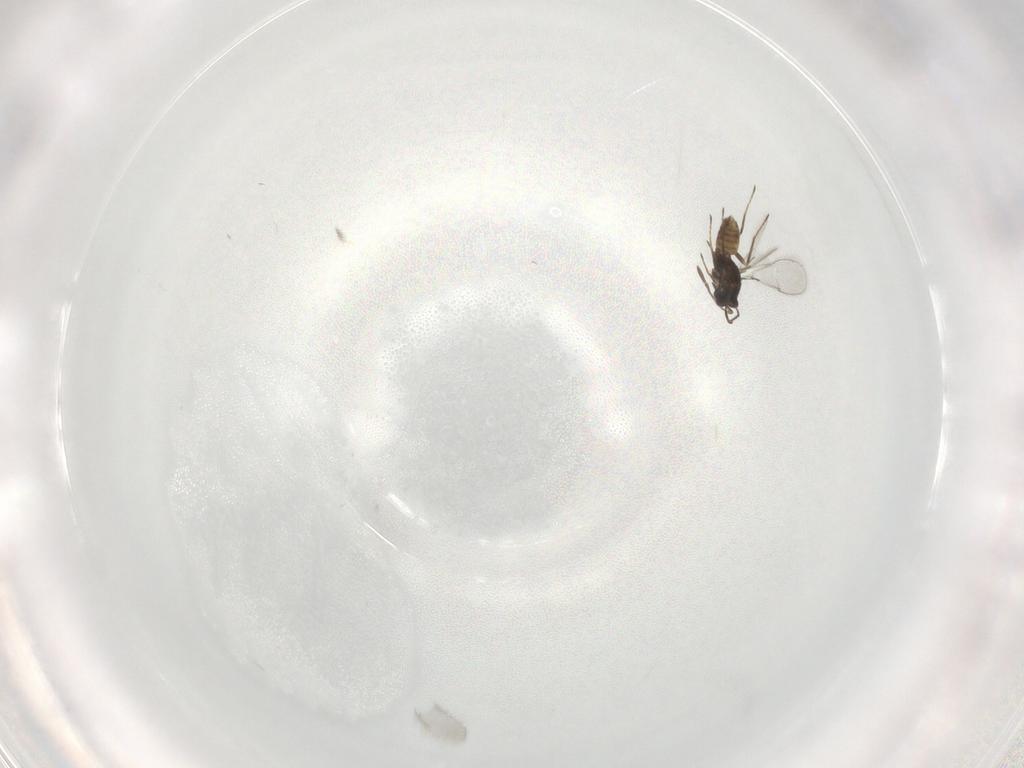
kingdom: Animalia
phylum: Arthropoda
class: Insecta
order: Hymenoptera
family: Mymaridae
